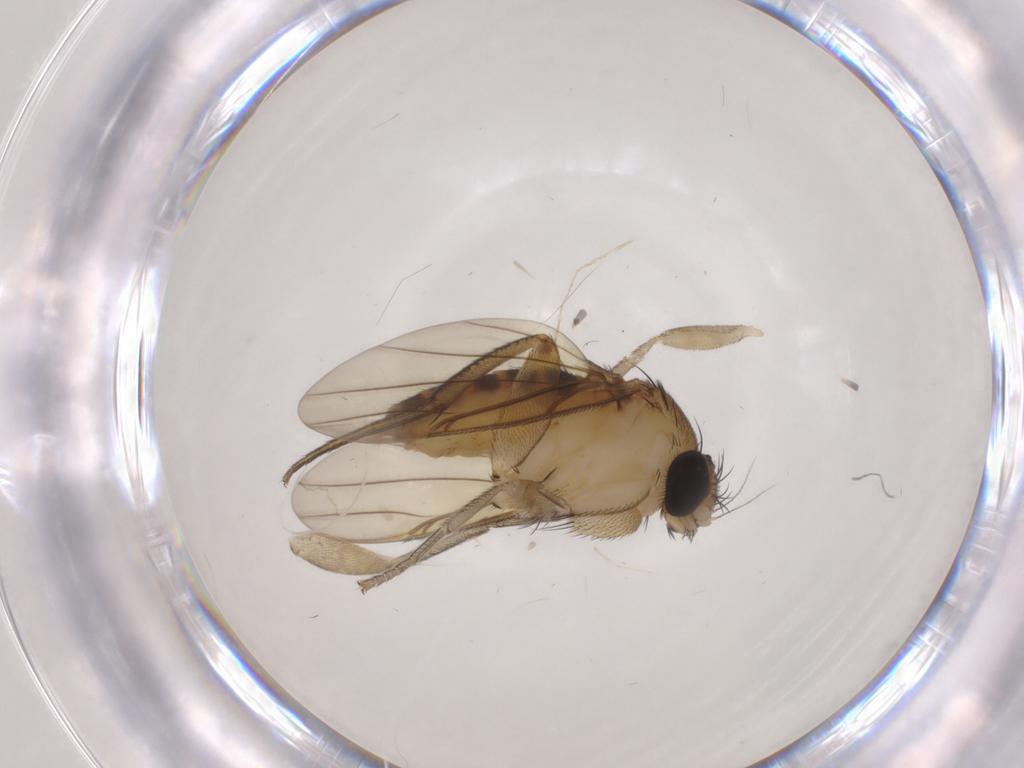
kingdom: Animalia
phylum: Arthropoda
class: Insecta
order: Diptera
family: Sciaridae
